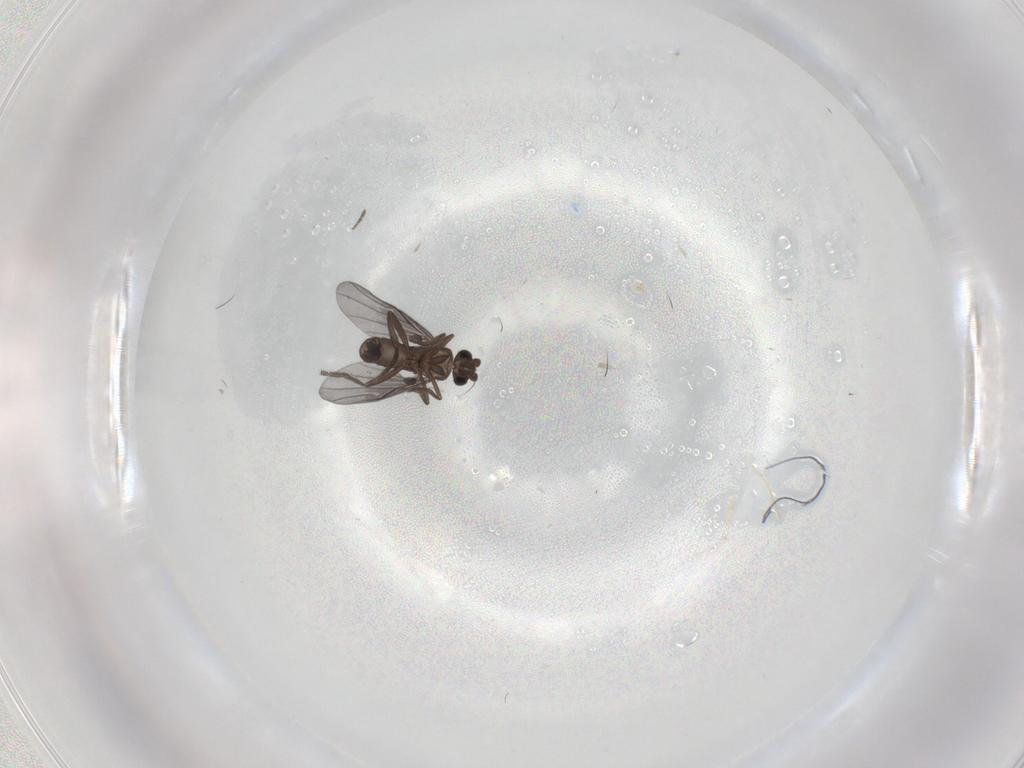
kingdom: Animalia
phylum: Arthropoda
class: Insecta
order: Diptera
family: Phoridae
